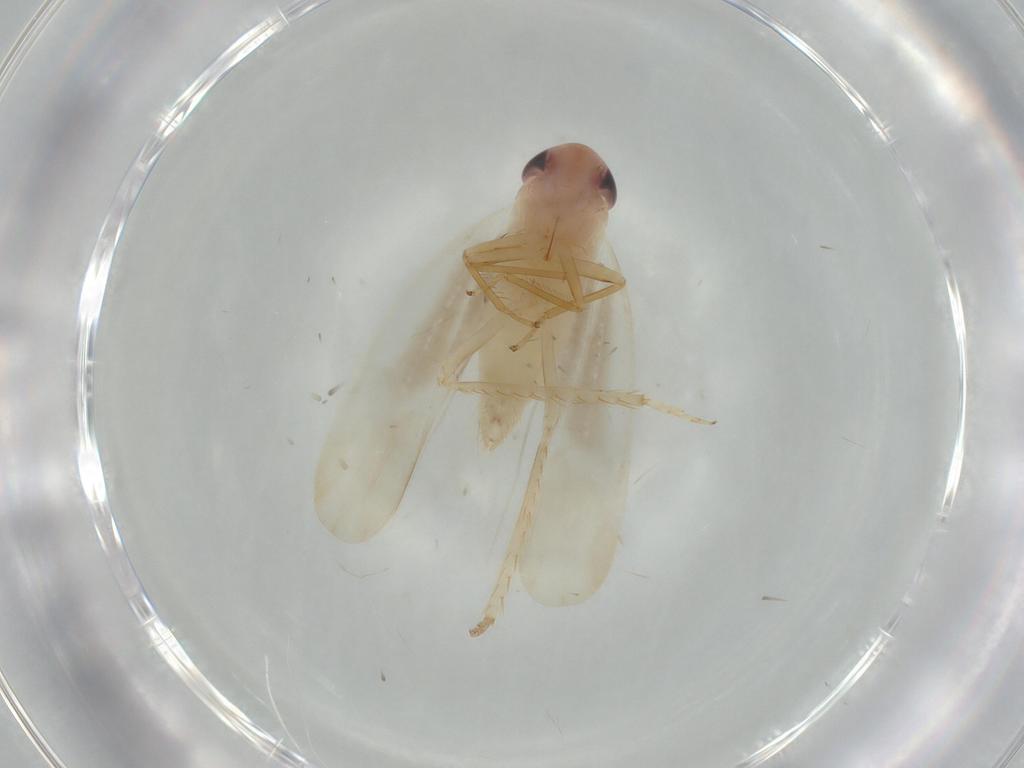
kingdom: Animalia
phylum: Arthropoda
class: Insecta
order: Hemiptera
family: Cicadellidae
